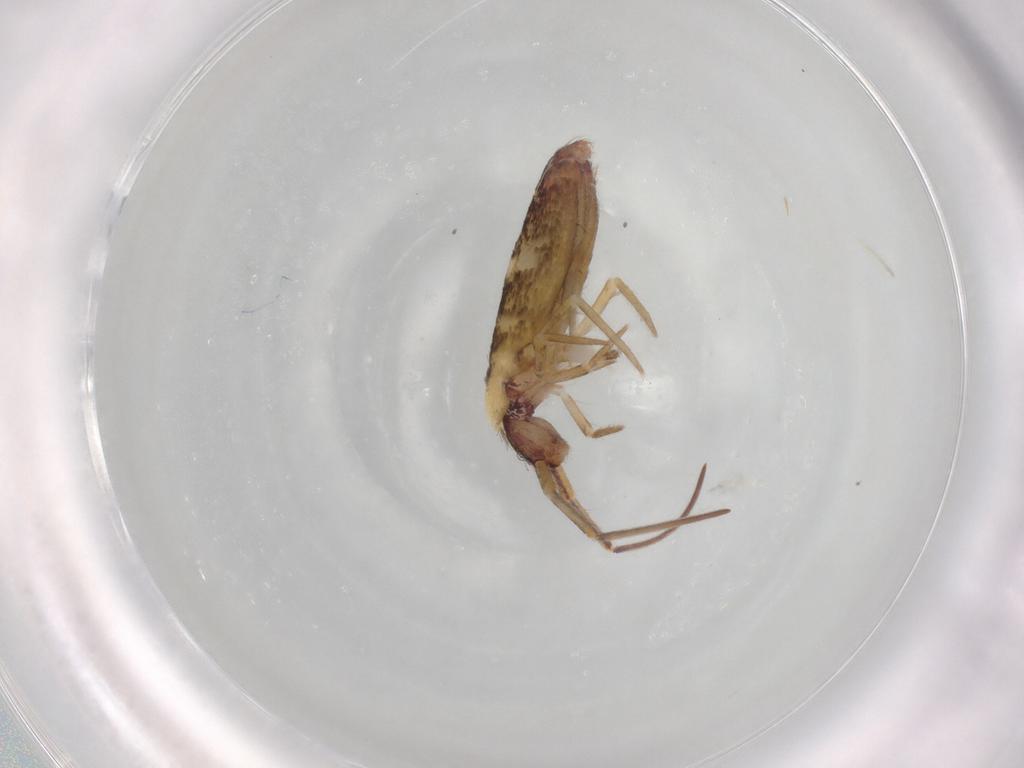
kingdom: Animalia
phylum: Arthropoda
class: Collembola
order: Entomobryomorpha
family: Entomobryidae
